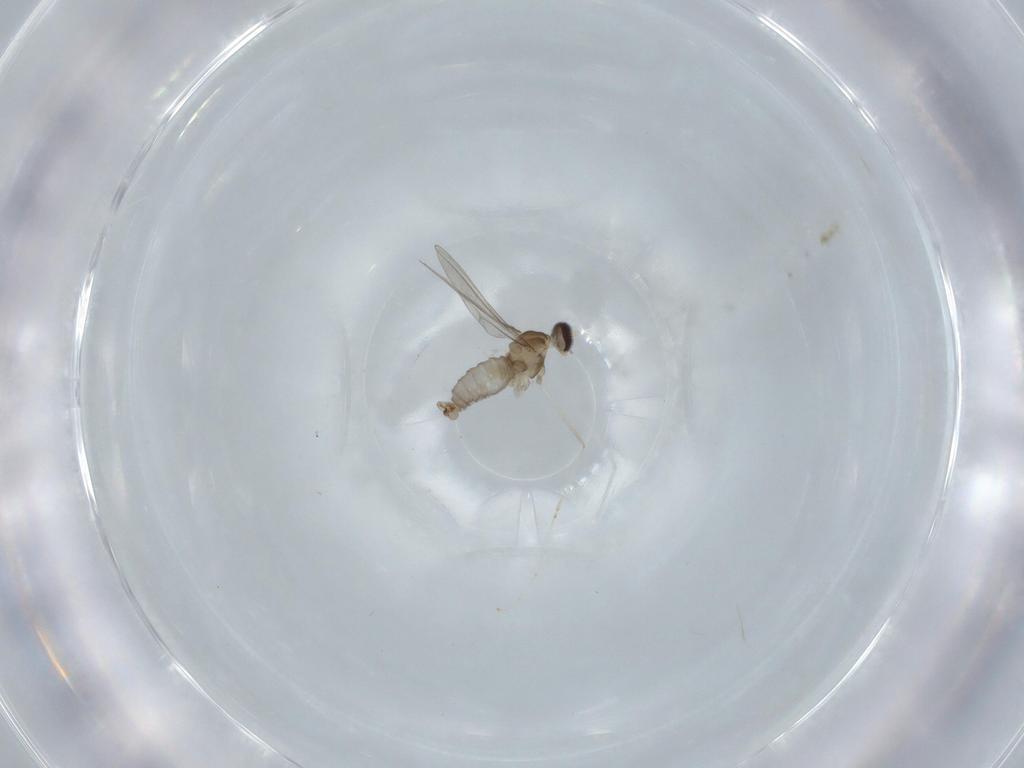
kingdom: Animalia
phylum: Arthropoda
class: Insecta
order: Diptera
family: Cecidomyiidae
